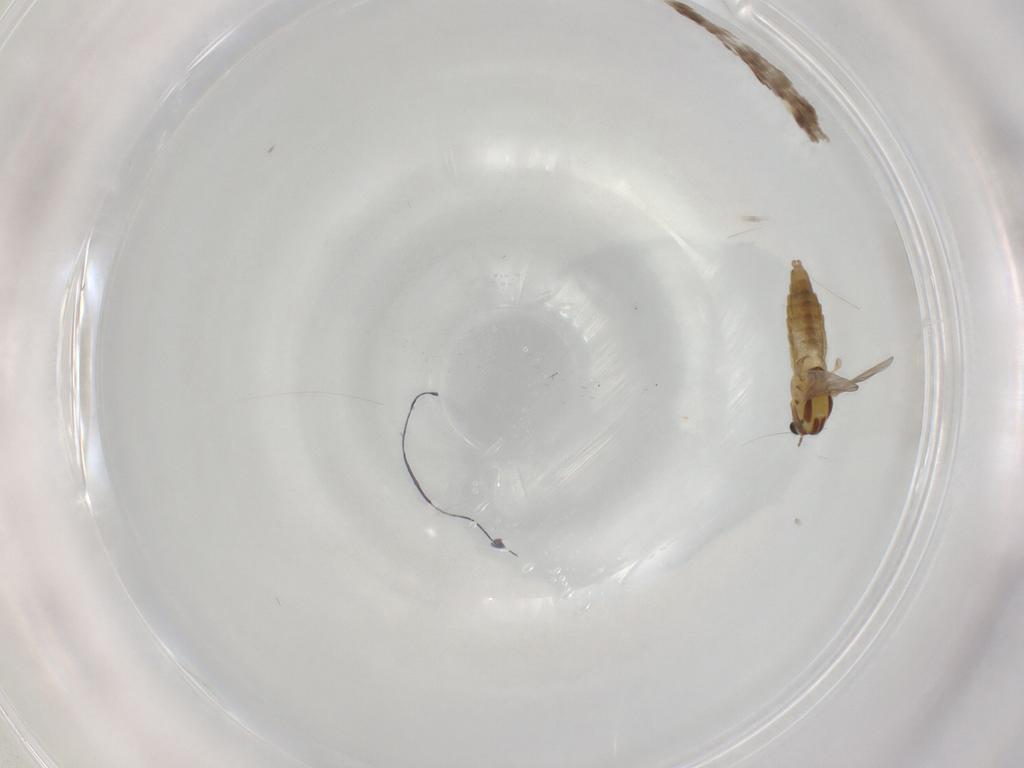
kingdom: Animalia
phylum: Arthropoda
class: Insecta
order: Diptera
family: Chironomidae
